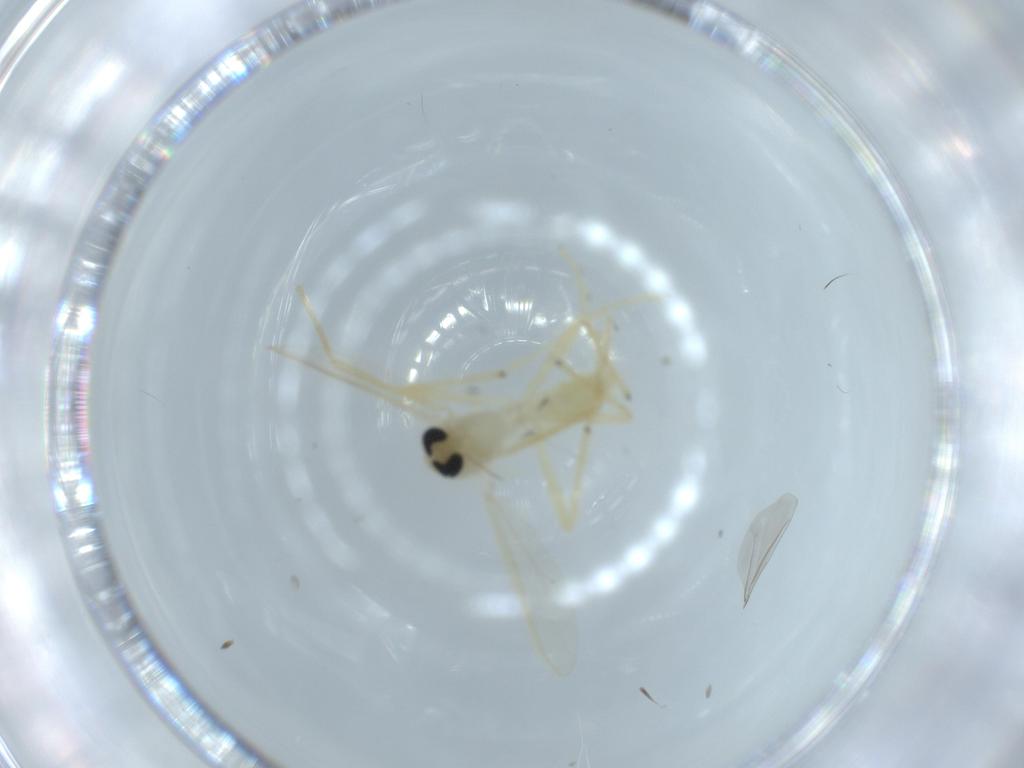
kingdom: Animalia
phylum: Arthropoda
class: Insecta
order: Diptera
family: Chironomidae
